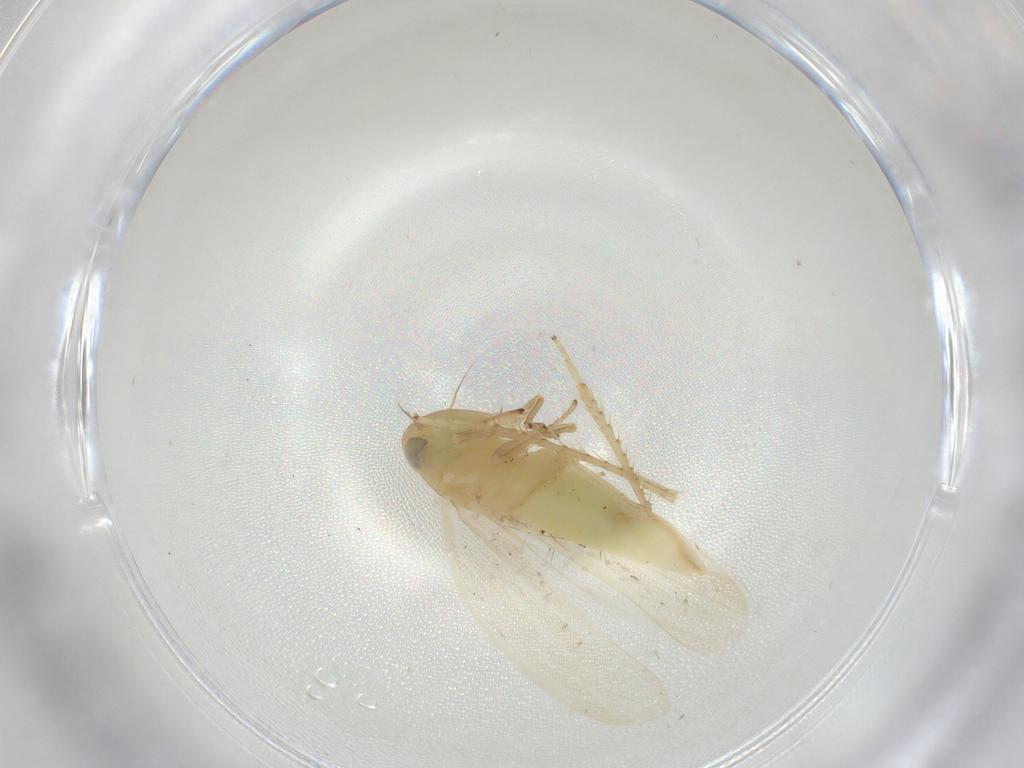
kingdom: Animalia
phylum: Arthropoda
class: Insecta
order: Hemiptera
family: Cicadellidae
